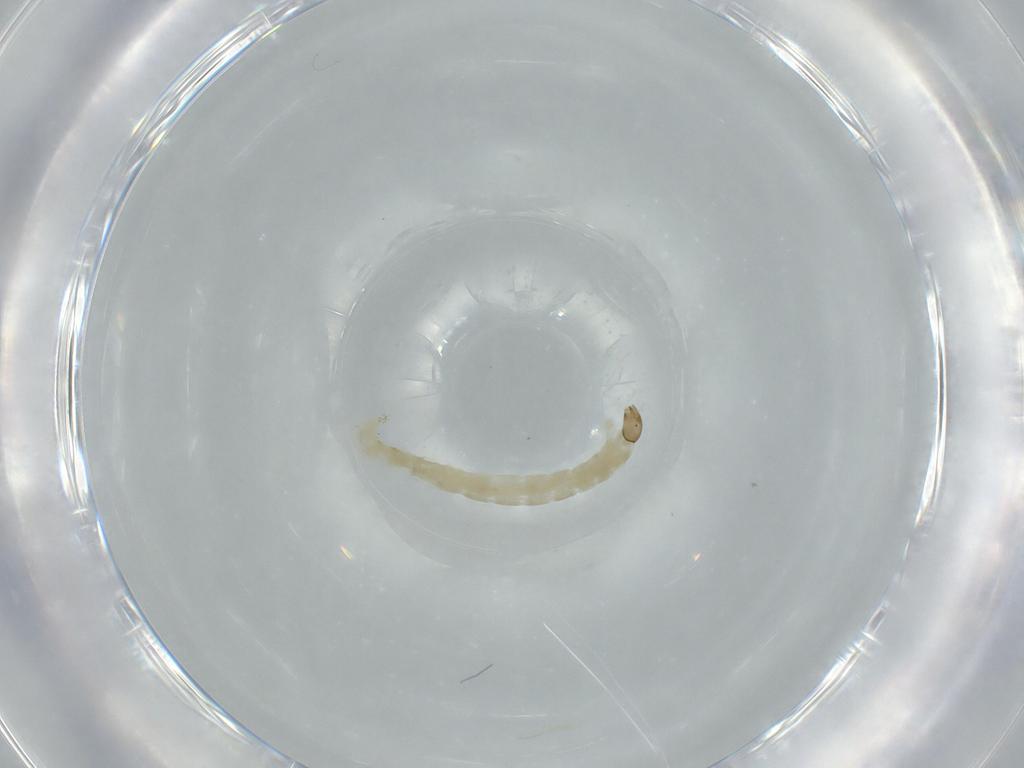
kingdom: Animalia
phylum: Arthropoda
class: Insecta
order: Diptera
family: Chironomidae
